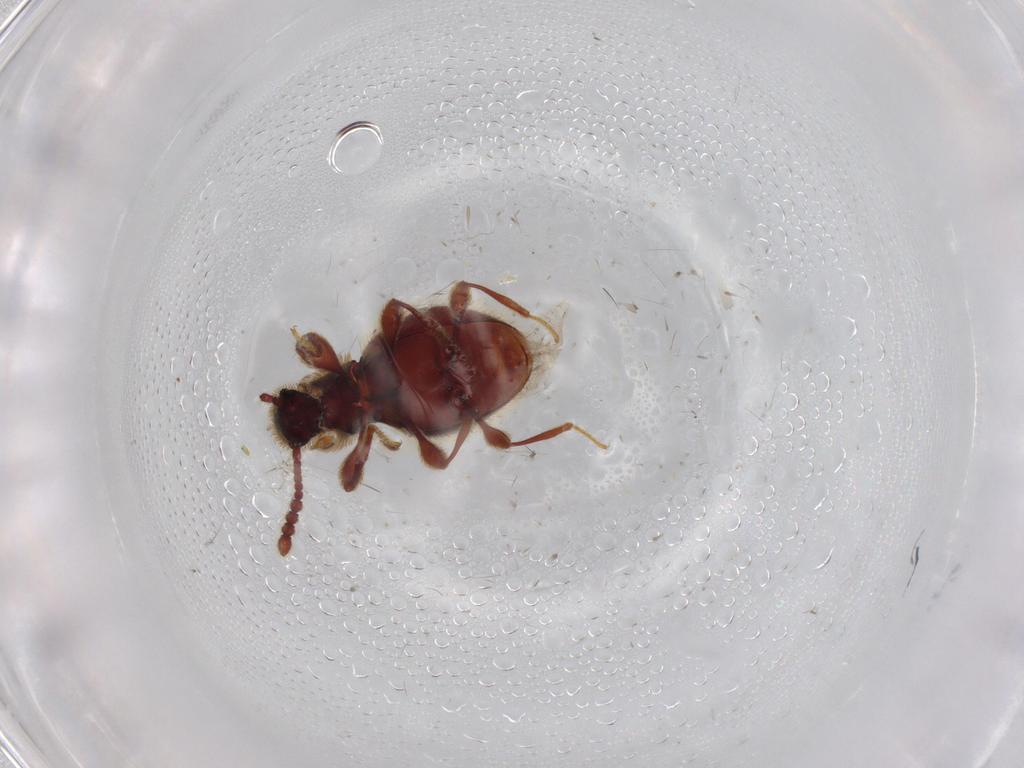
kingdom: Animalia
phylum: Arthropoda
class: Insecta
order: Coleoptera
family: Staphylinidae
